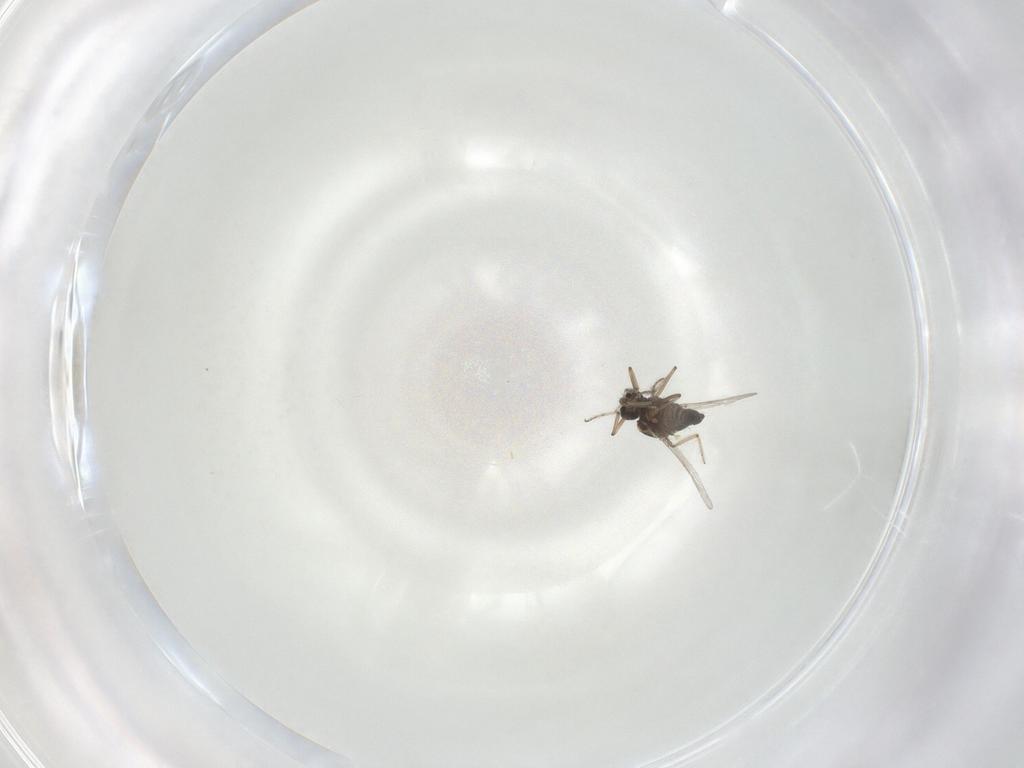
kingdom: Animalia
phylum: Arthropoda
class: Insecta
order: Diptera
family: Ceratopogonidae
